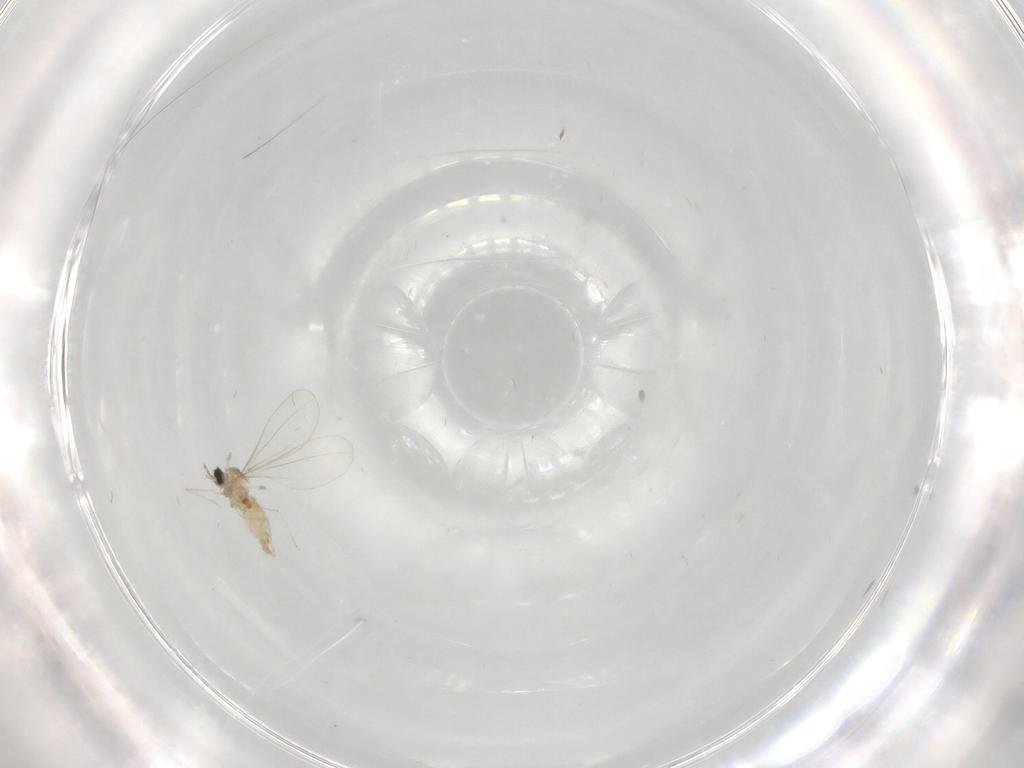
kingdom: Animalia
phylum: Arthropoda
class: Insecta
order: Diptera
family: Cecidomyiidae
